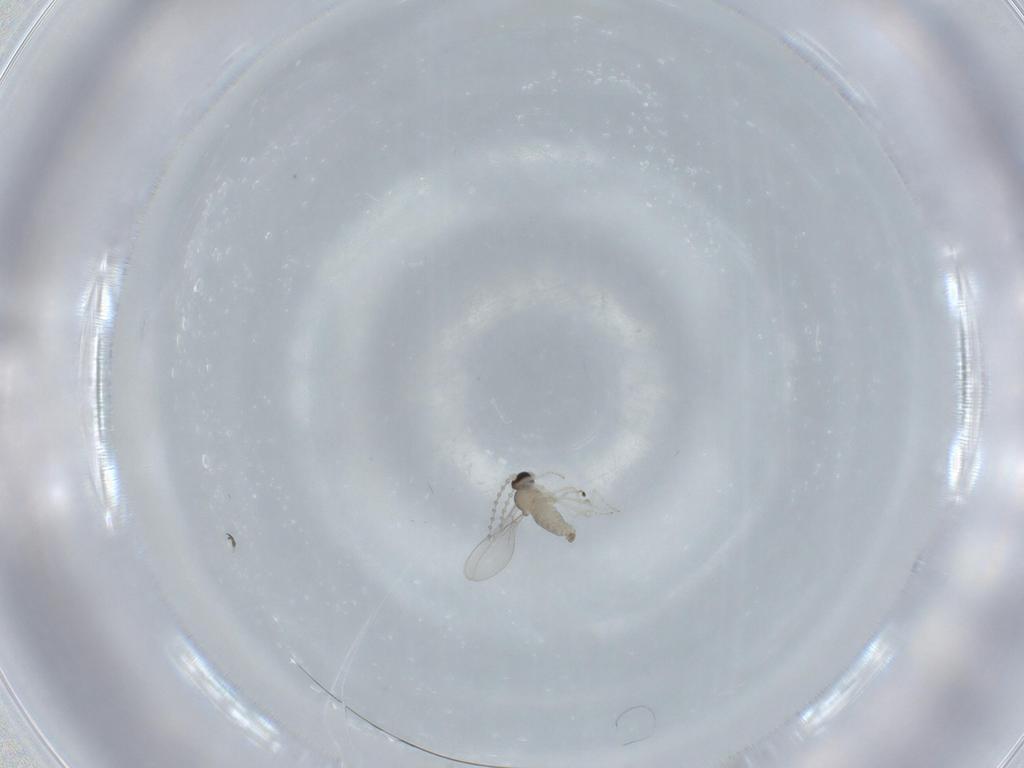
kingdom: Animalia
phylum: Arthropoda
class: Insecta
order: Diptera
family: Cecidomyiidae
